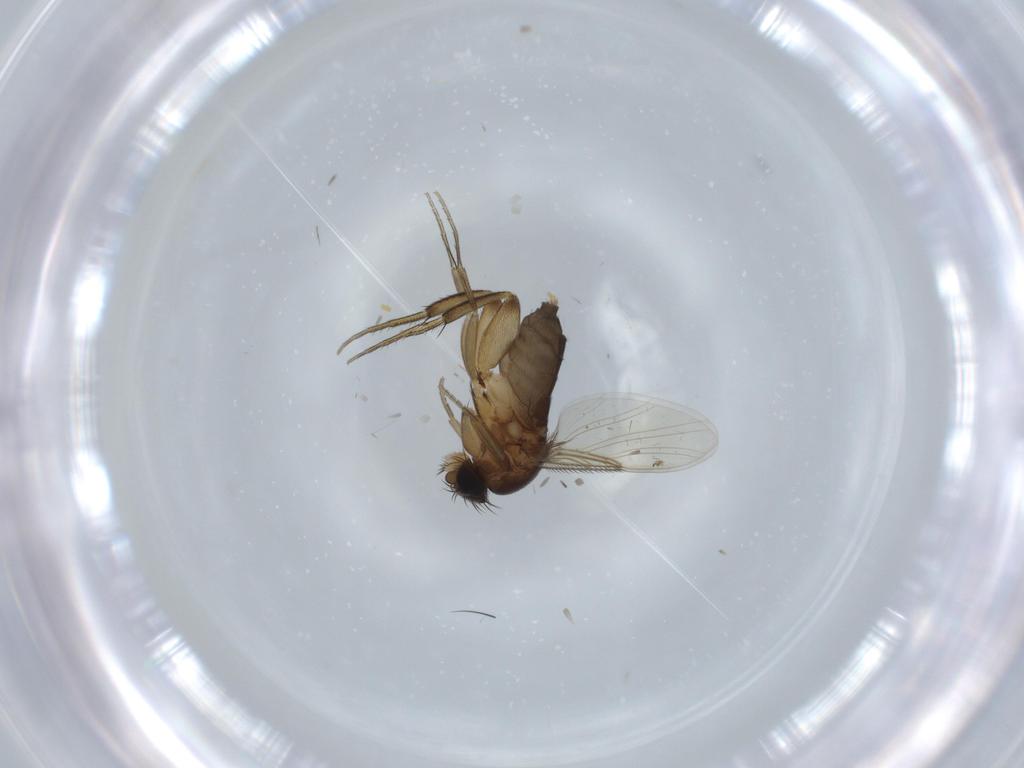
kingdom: Animalia
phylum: Arthropoda
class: Insecta
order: Diptera
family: Phoridae
